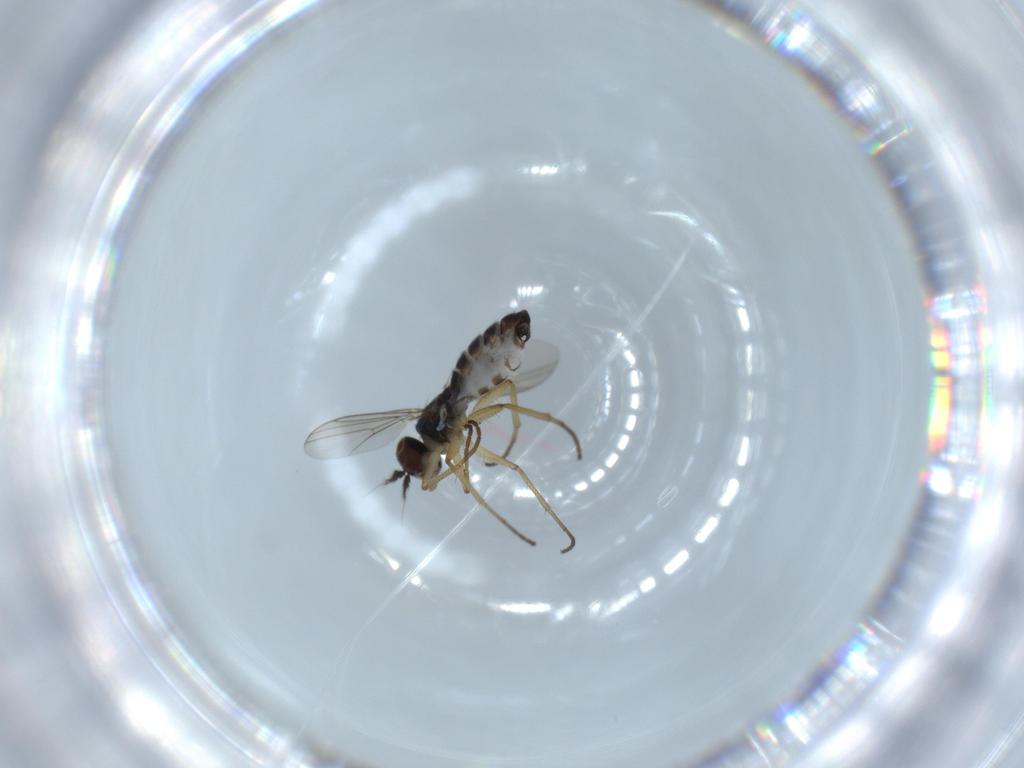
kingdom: Animalia
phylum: Arthropoda
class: Insecta
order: Diptera
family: Dolichopodidae
